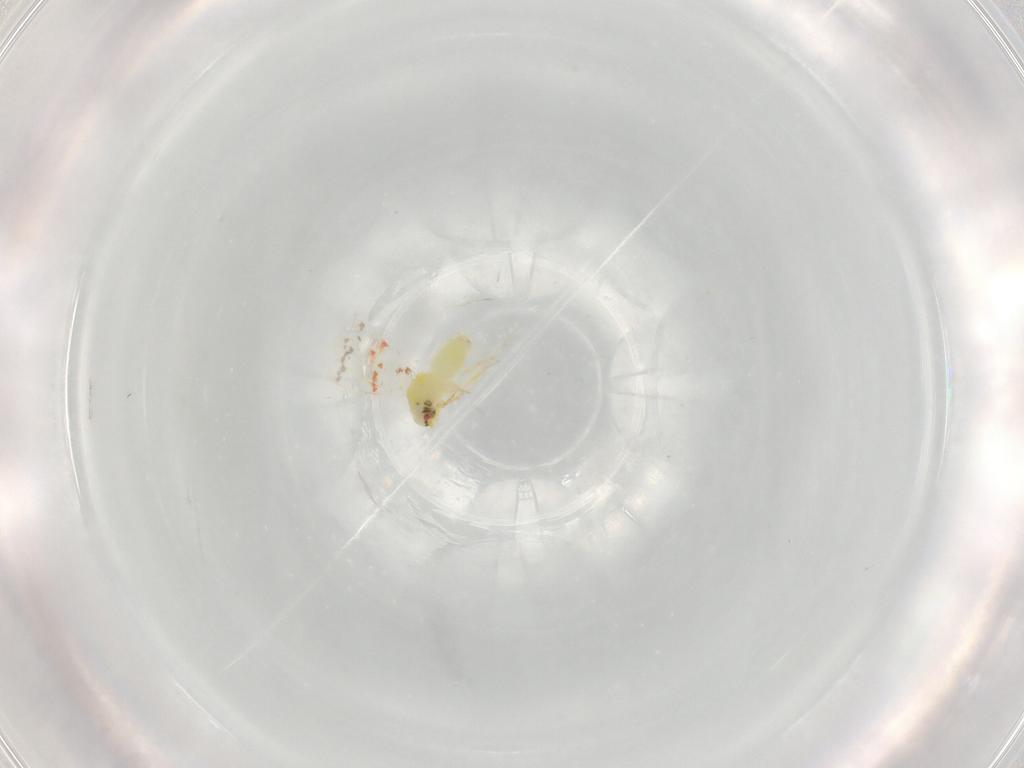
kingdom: Animalia
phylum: Arthropoda
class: Insecta
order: Hemiptera
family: Aleyrodidae
